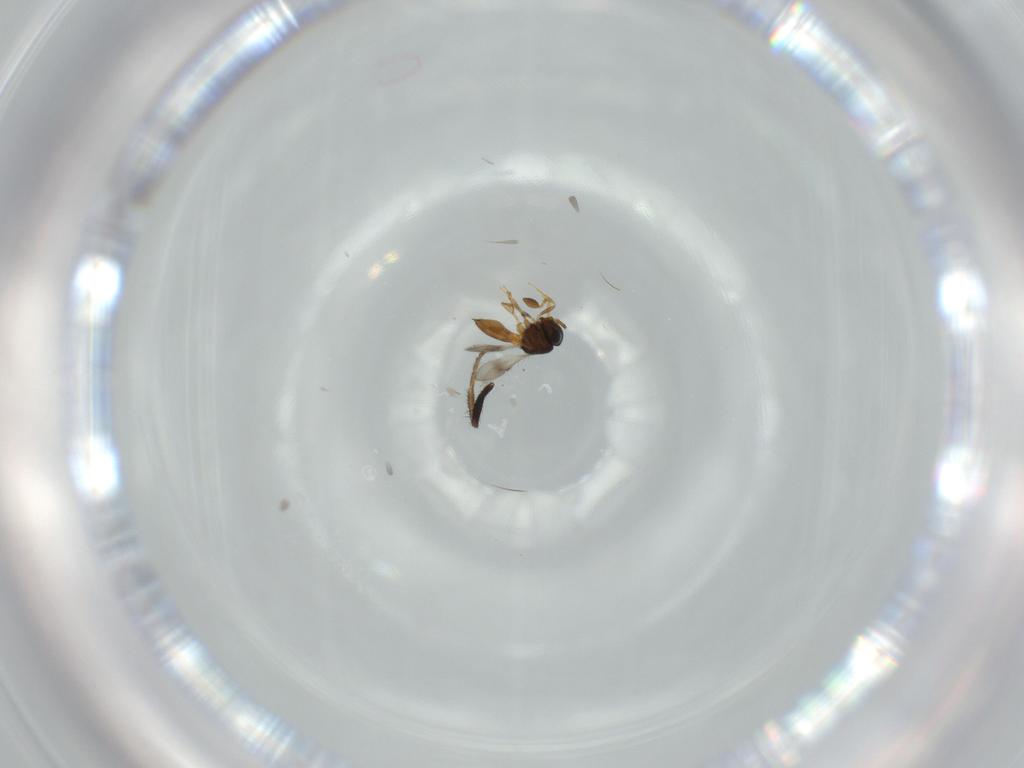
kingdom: Animalia
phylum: Arthropoda
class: Insecta
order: Hymenoptera
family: Scelionidae
